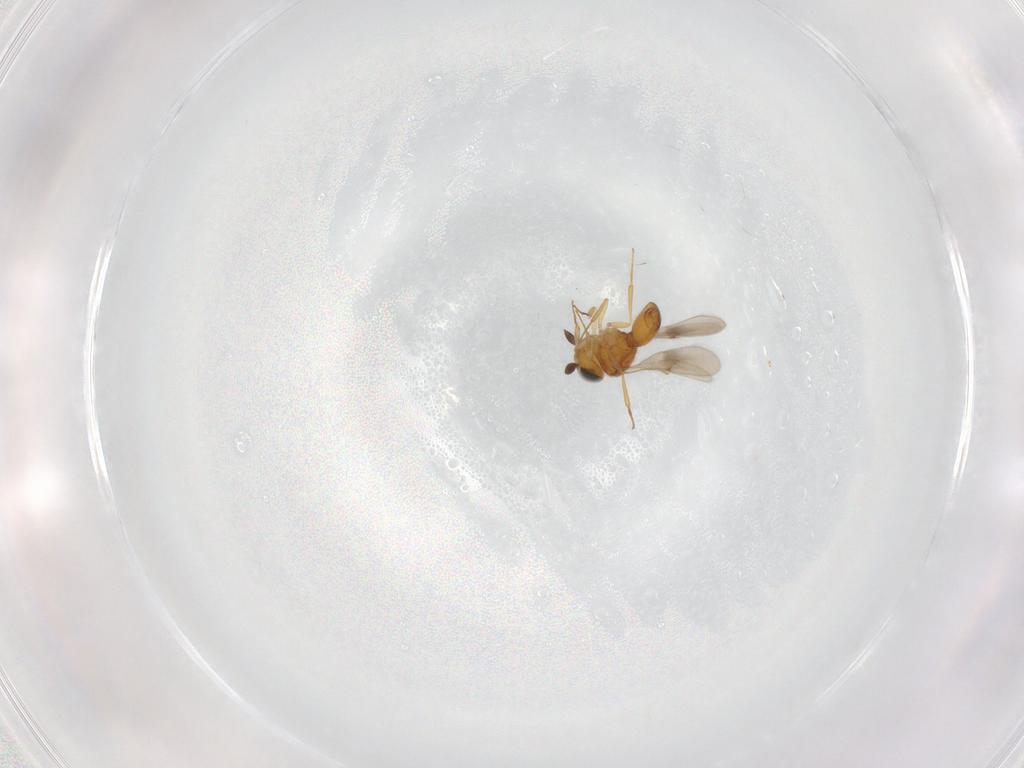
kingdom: Animalia
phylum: Arthropoda
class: Insecta
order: Hymenoptera
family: Scelionidae
